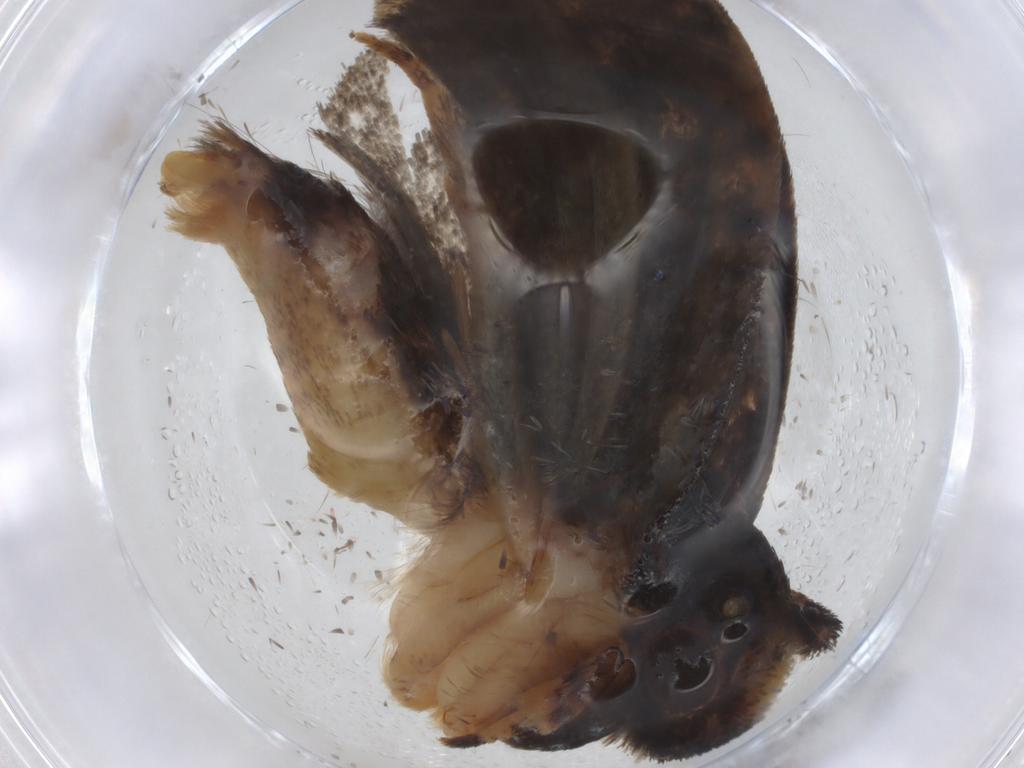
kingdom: Animalia
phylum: Arthropoda
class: Insecta
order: Lepidoptera
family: Tineidae
